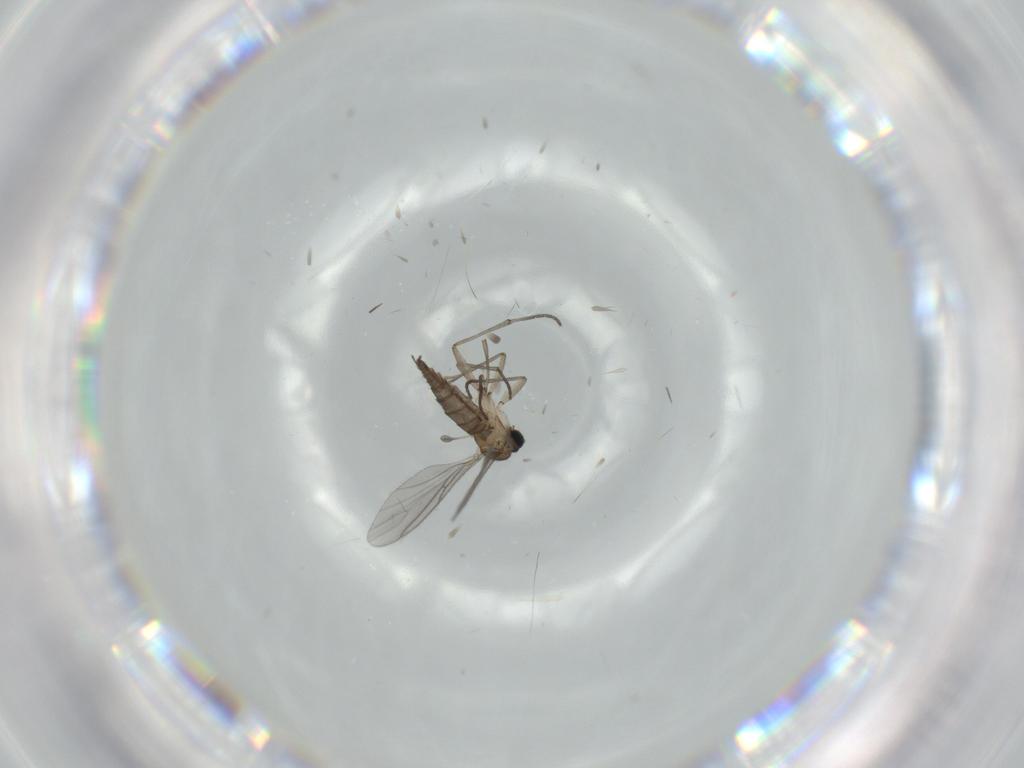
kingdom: Animalia
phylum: Arthropoda
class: Insecta
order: Diptera
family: Sciaridae
